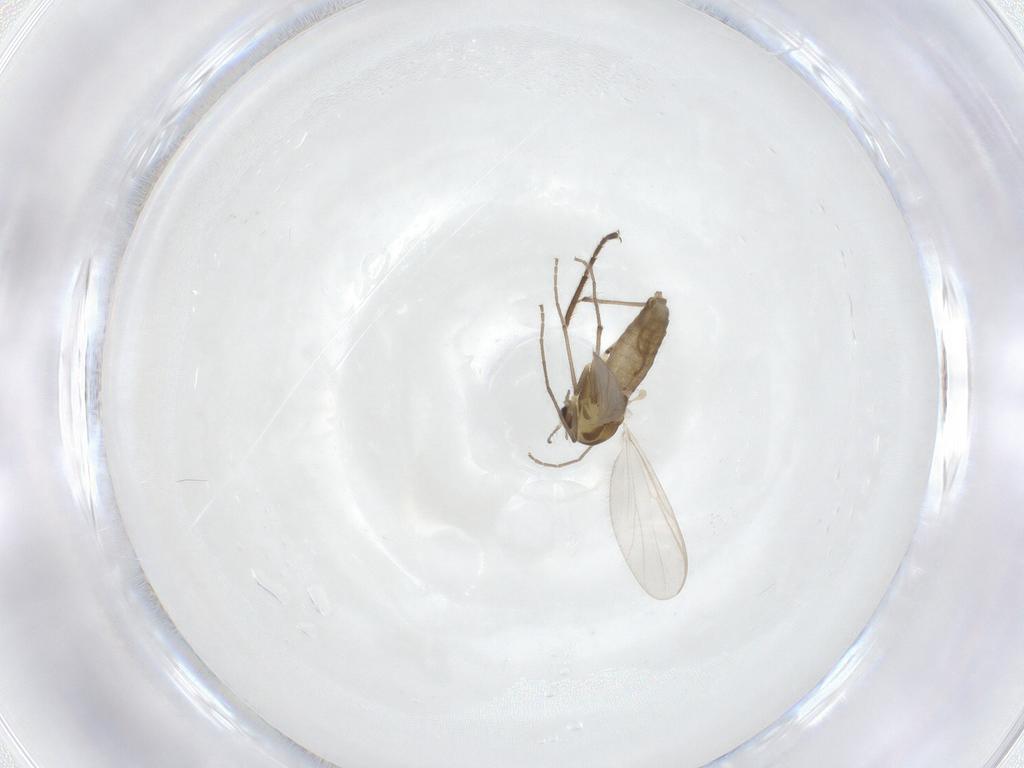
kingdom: Animalia
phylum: Arthropoda
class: Insecta
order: Diptera
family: Chironomidae
